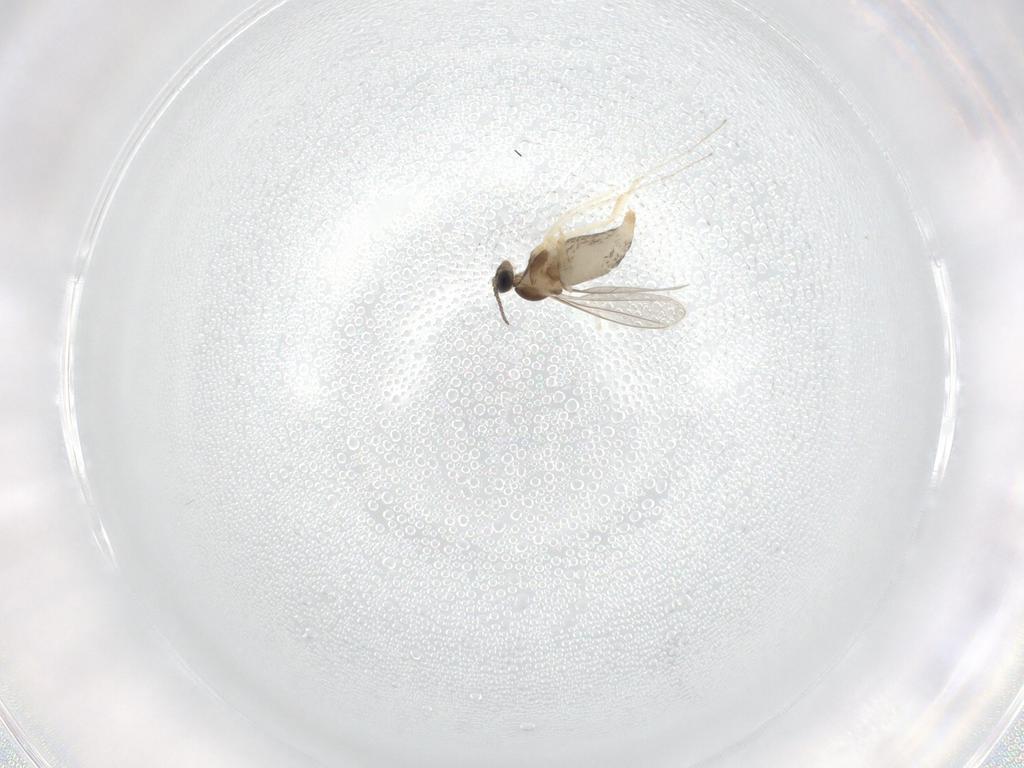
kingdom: Animalia
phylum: Arthropoda
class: Insecta
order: Diptera
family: Cecidomyiidae
